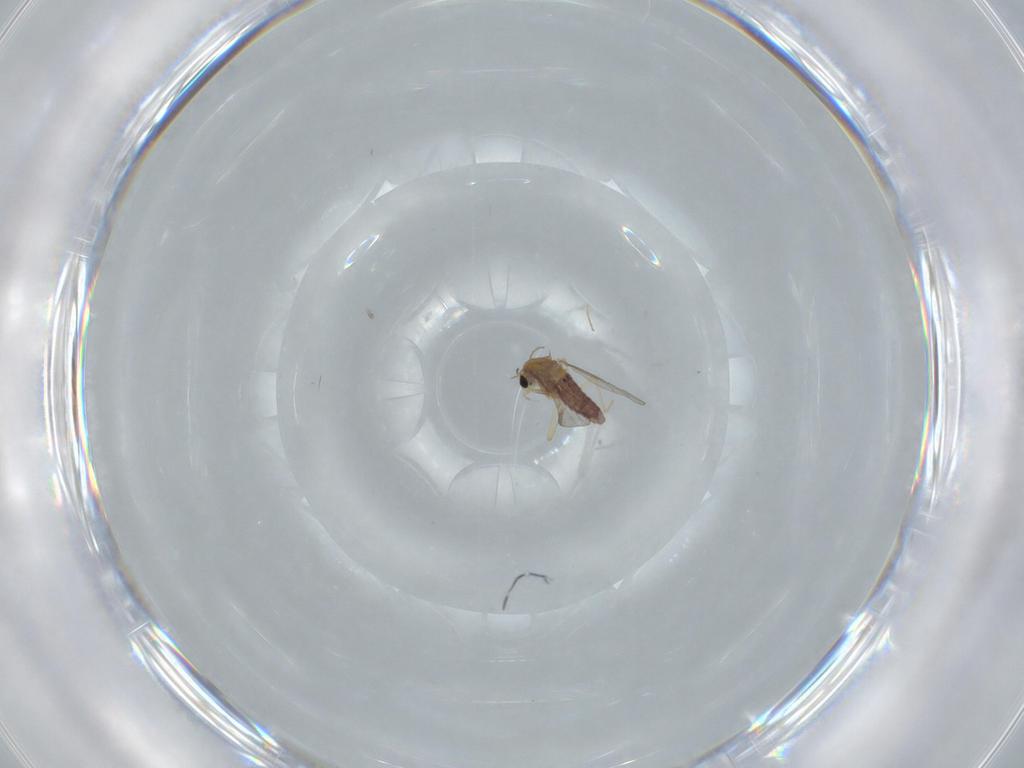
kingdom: Animalia
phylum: Arthropoda
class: Insecta
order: Diptera
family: Chironomidae
